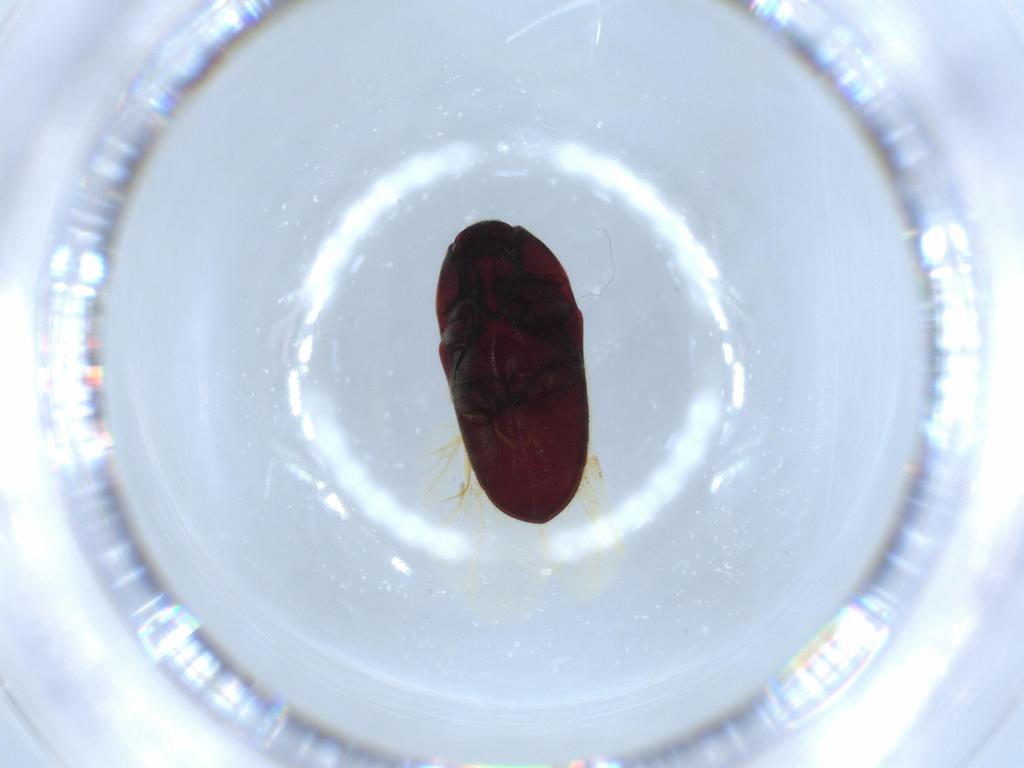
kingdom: Animalia
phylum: Arthropoda
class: Insecta
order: Coleoptera
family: Throscidae
